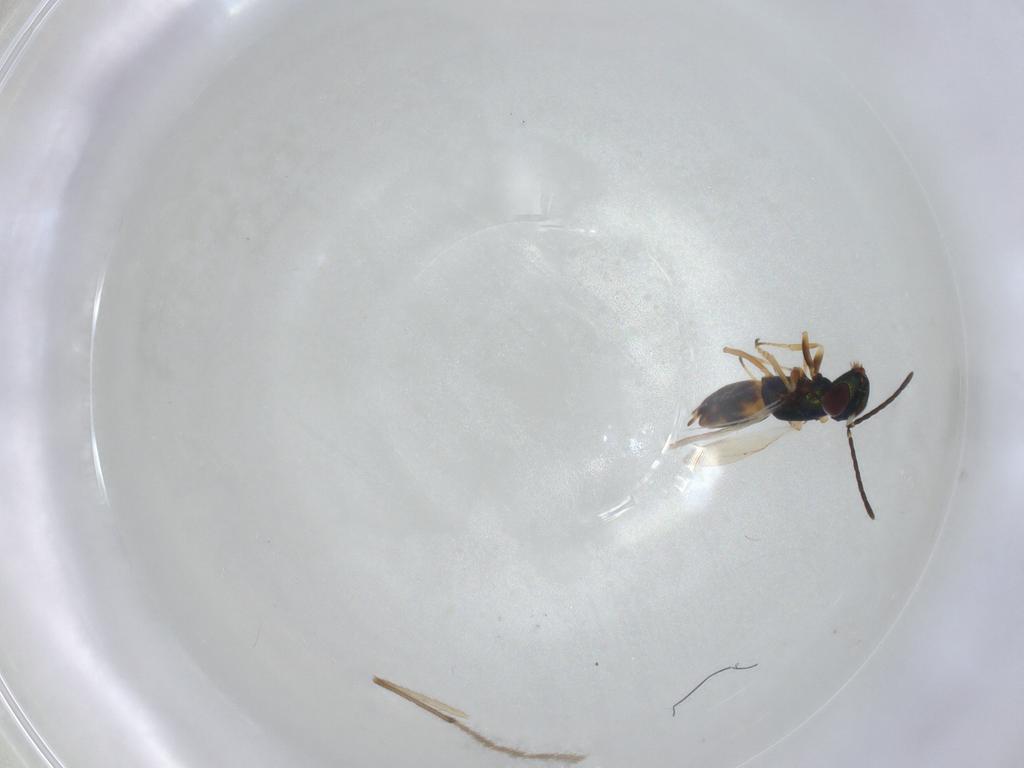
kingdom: Animalia
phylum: Arthropoda
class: Insecta
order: Hymenoptera
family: Encyrtidae
